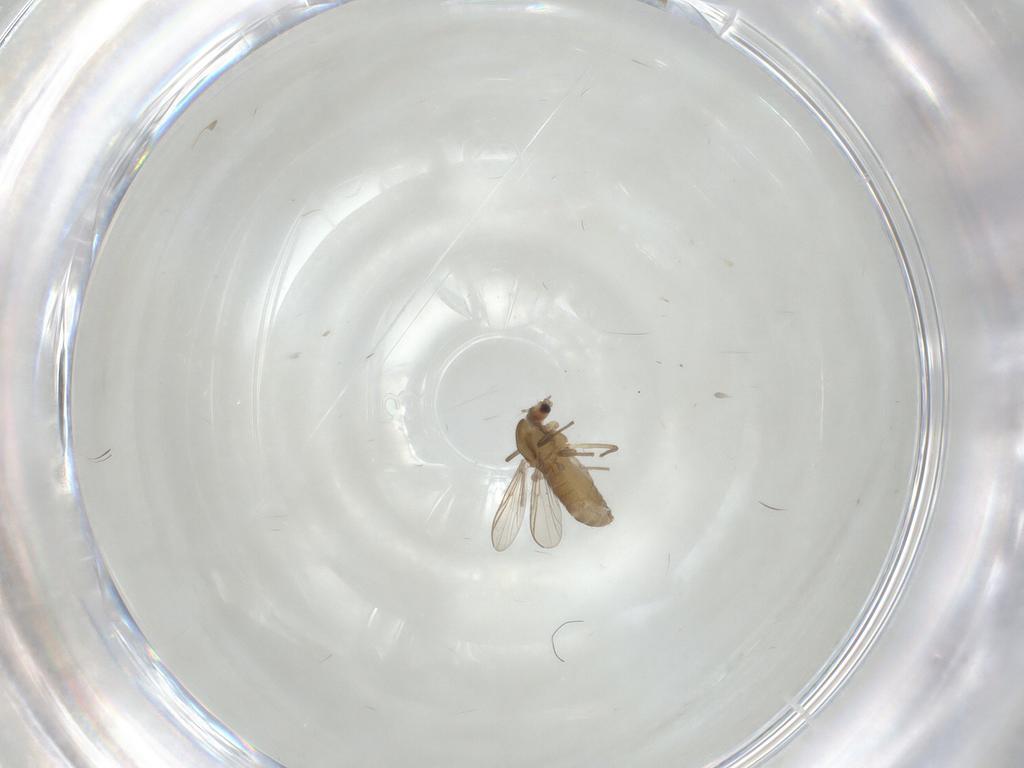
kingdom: Animalia
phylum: Arthropoda
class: Insecta
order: Diptera
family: Chironomidae
